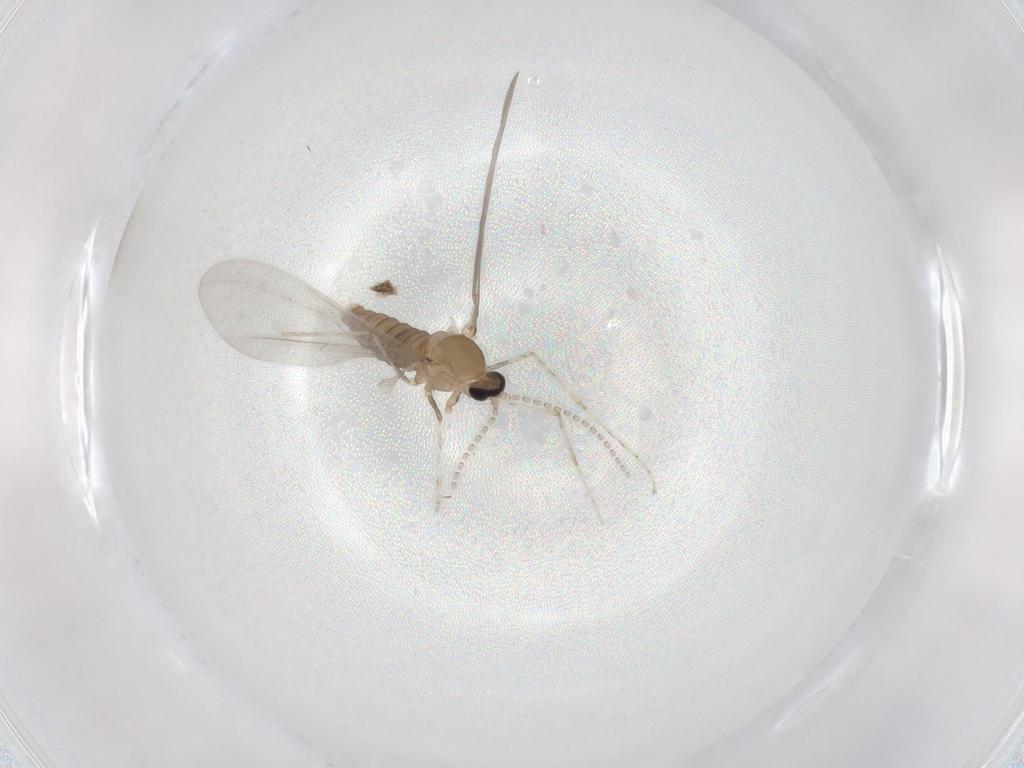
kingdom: Animalia
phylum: Arthropoda
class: Insecta
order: Diptera
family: Cecidomyiidae
